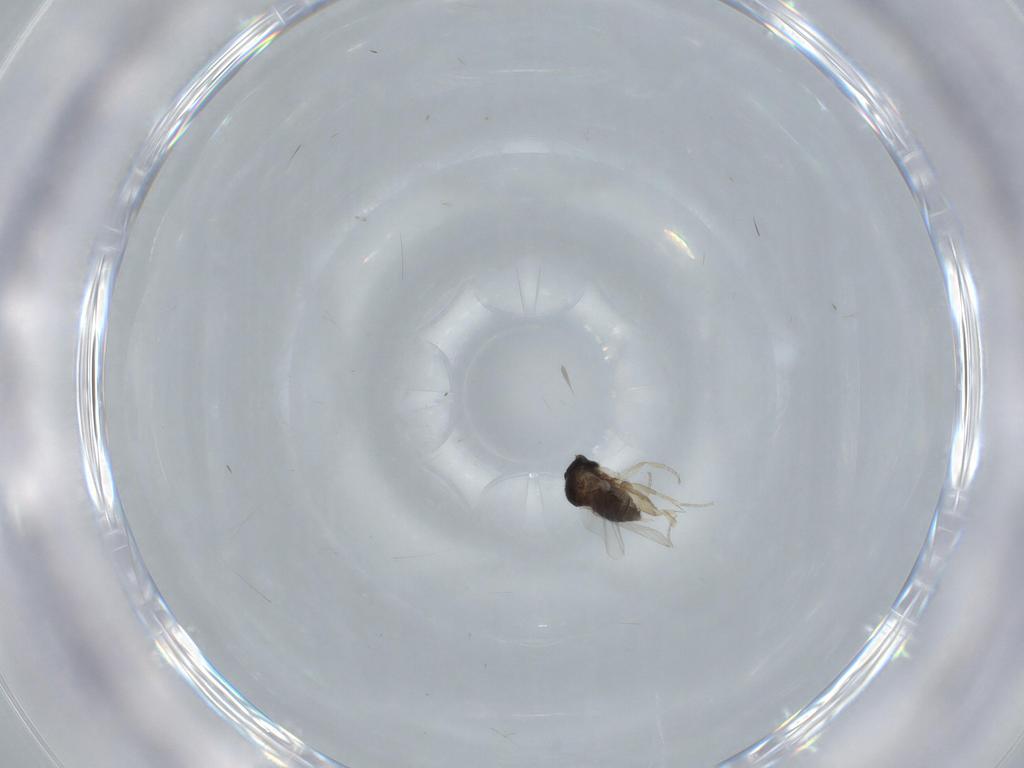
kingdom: Animalia
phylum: Arthropoda
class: Insecta
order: Diptera
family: Phoridae
